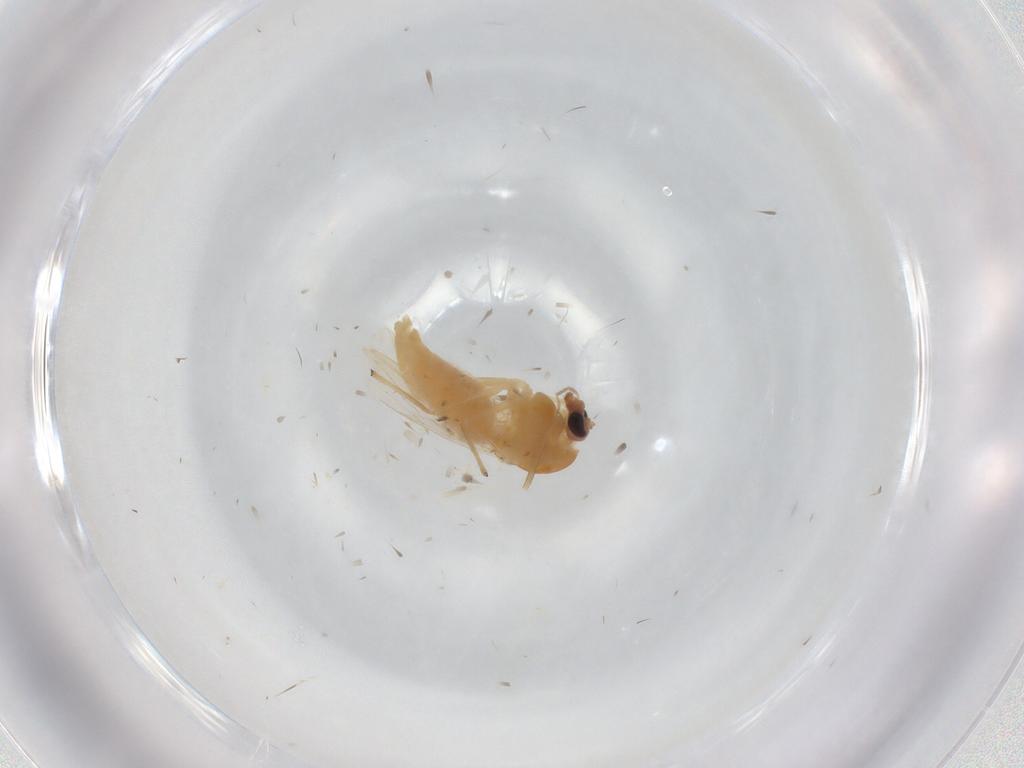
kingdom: Animalia
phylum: Arthropoda
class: Insecta
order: Diptera
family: Chironomidae
